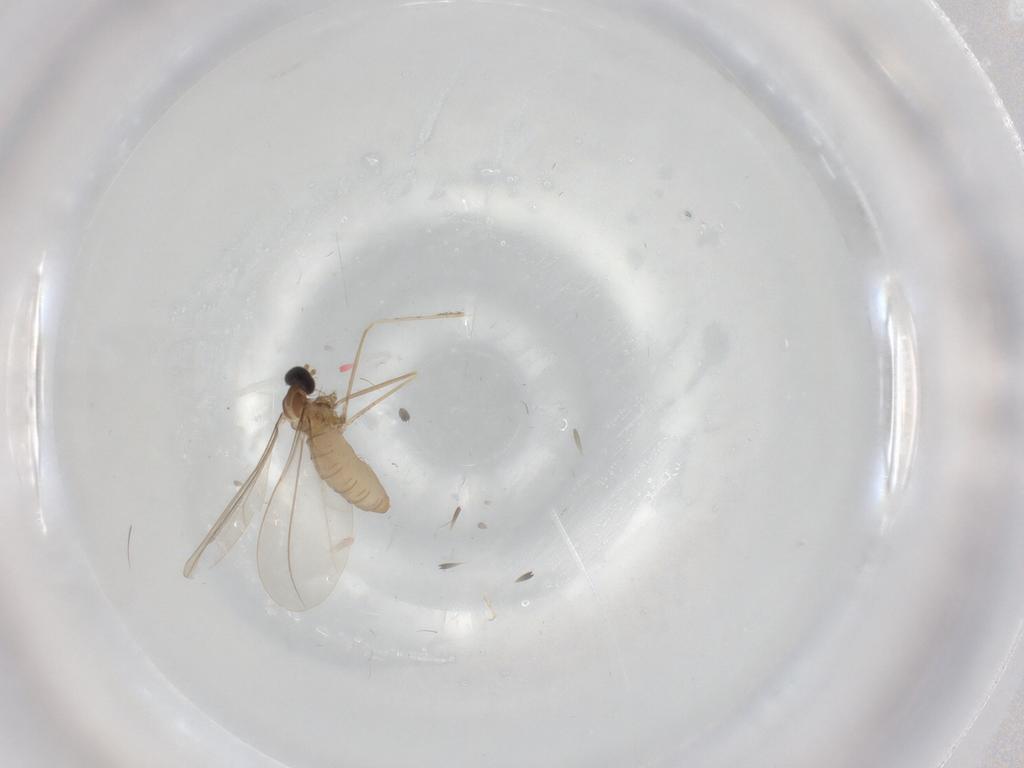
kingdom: Animalia
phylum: Arthropoda
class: Insecta
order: Diptera
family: Cecidomyiidae
